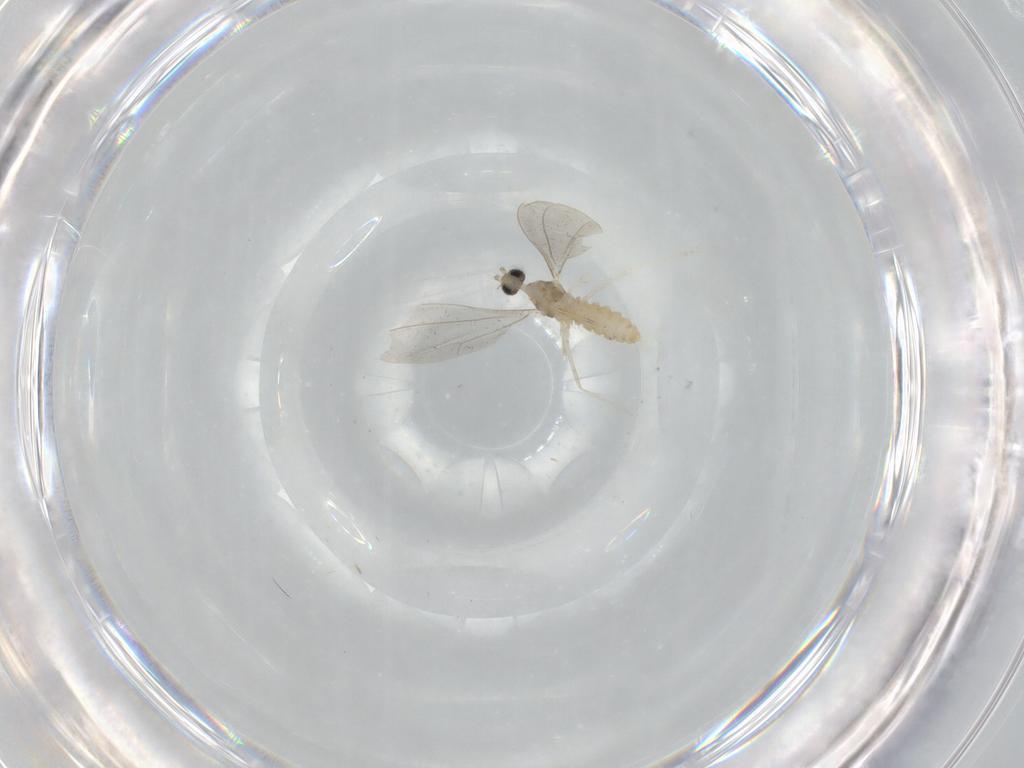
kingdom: Animalia
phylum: Arthropoda
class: Insecta
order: Diptera
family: Cecidomyiidae
